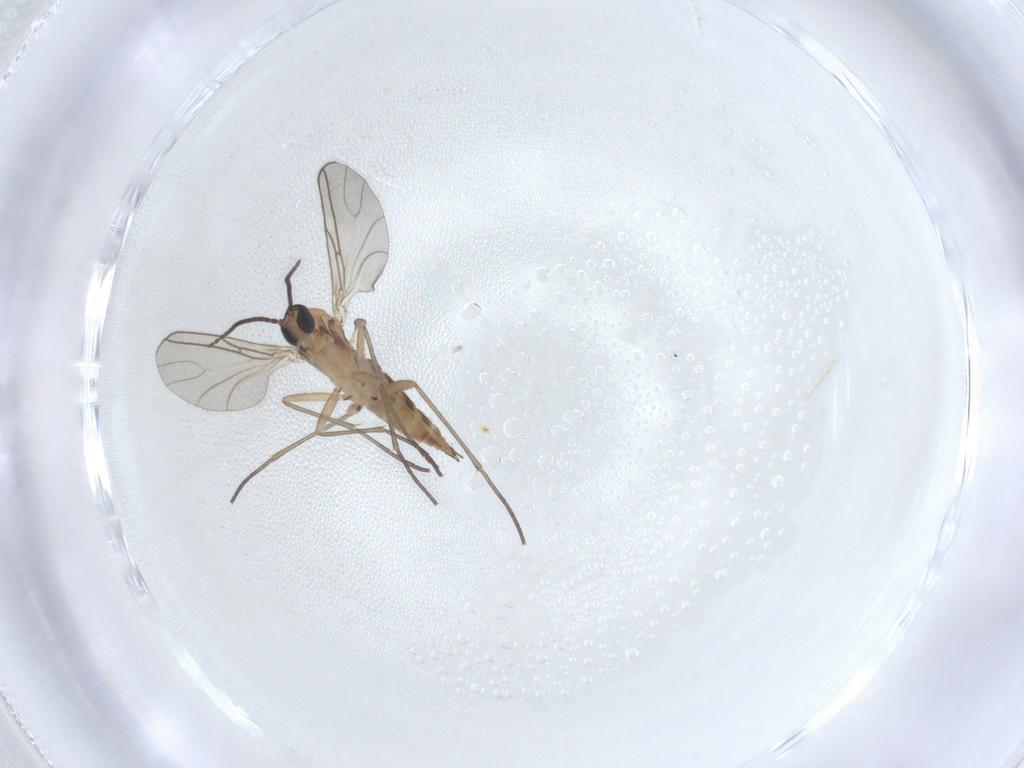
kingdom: Animalia
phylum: Arthropoda
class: Insecta
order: Diptera
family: Sciaridae
